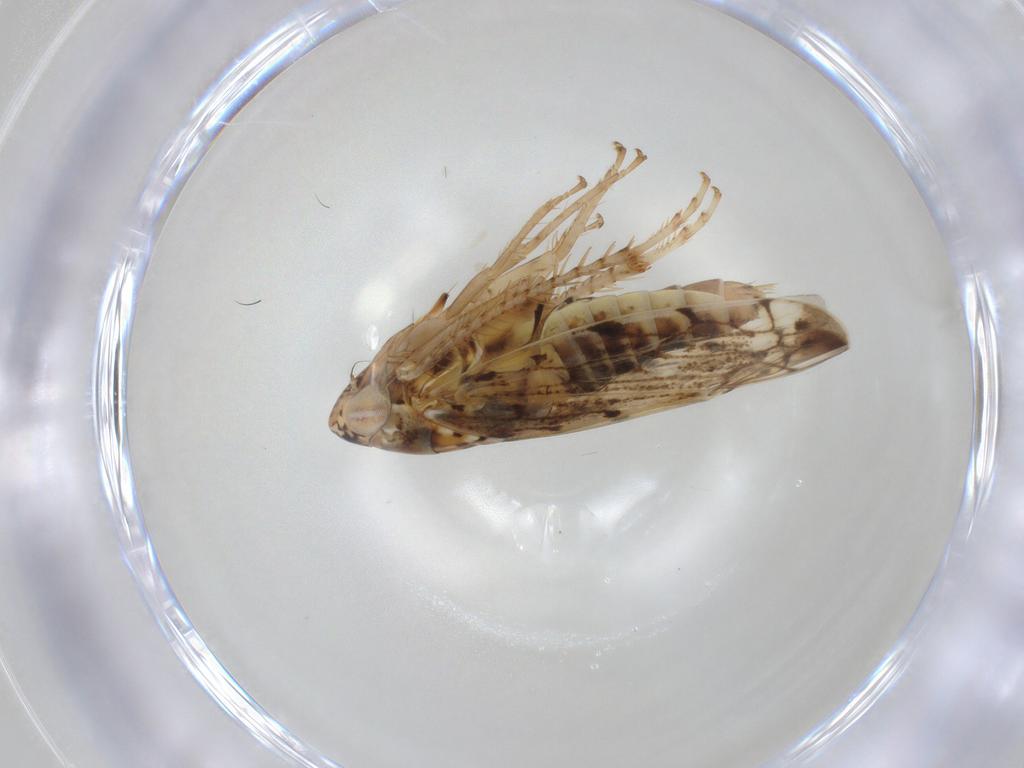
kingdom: Animalia
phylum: Arthropoda
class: Insecta
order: Hemiptera
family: Cicadellidae
